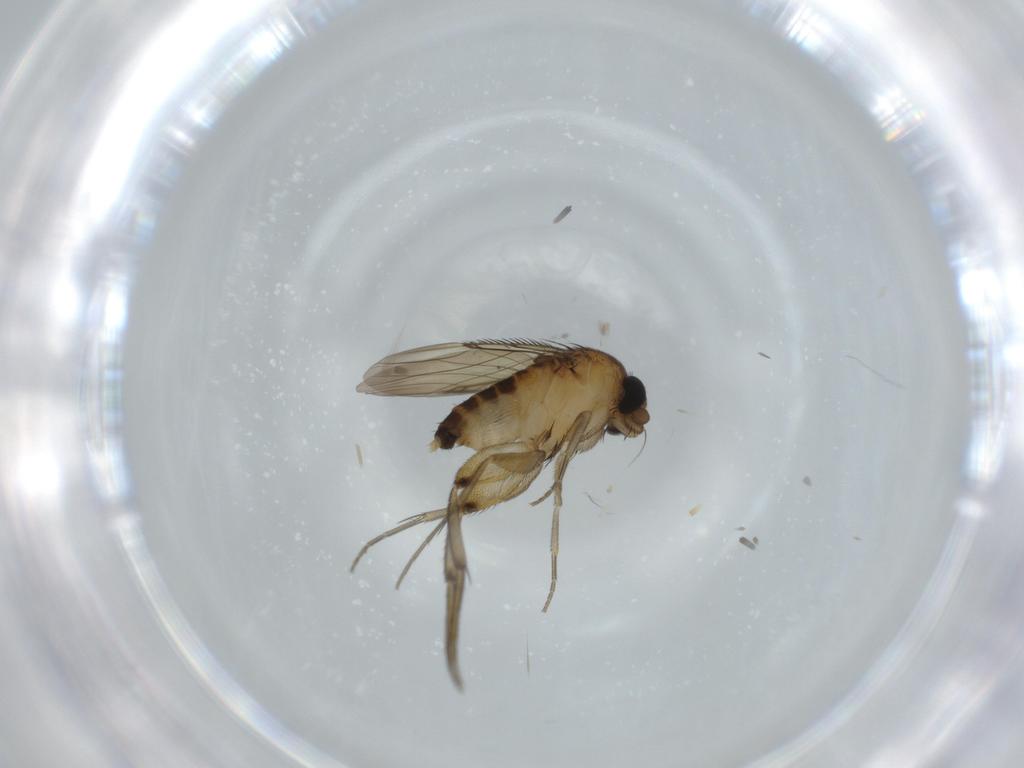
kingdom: Animalia
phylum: Arthropoda
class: Insecta
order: Diptera
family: Phoridae
